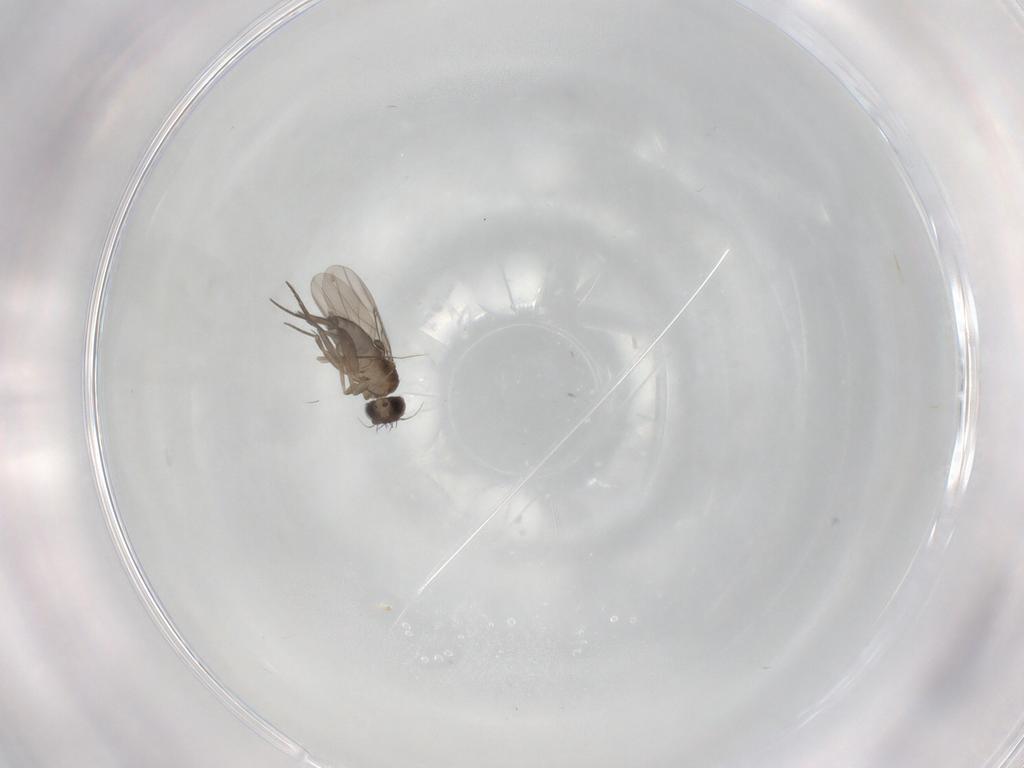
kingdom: Animalia
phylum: Arthropoda
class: Insecta
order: Diptera
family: Phoridae
